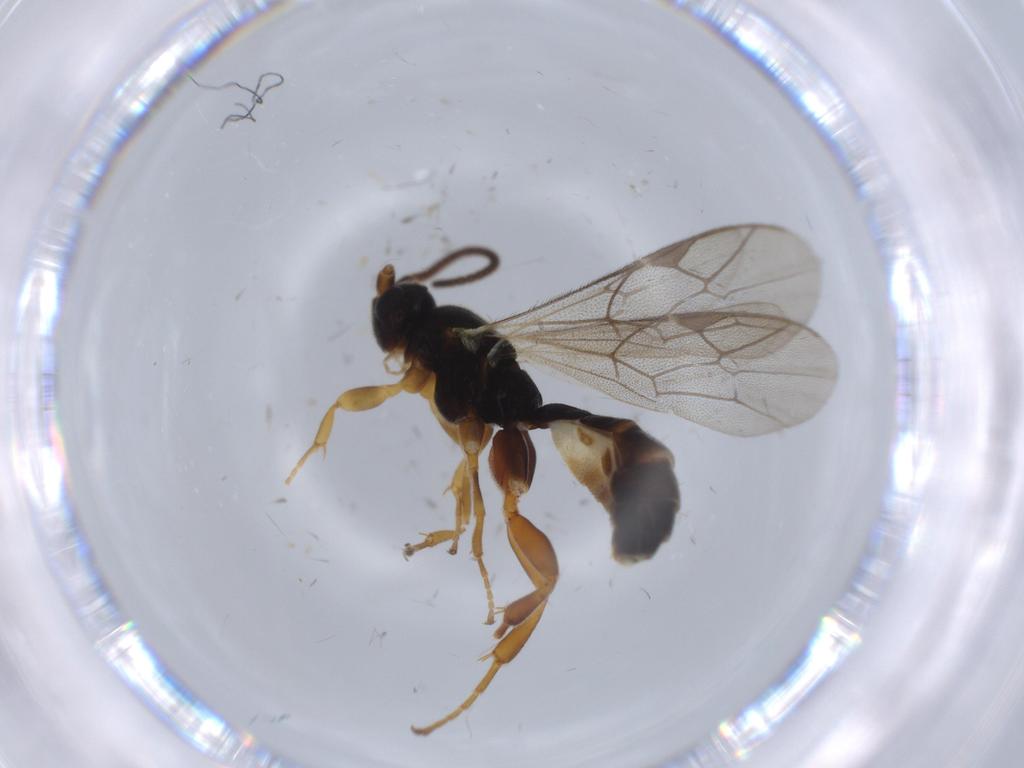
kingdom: Animalia
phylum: Arthropoda
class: Insecta
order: Hymenoptera
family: Ichneumonidae
